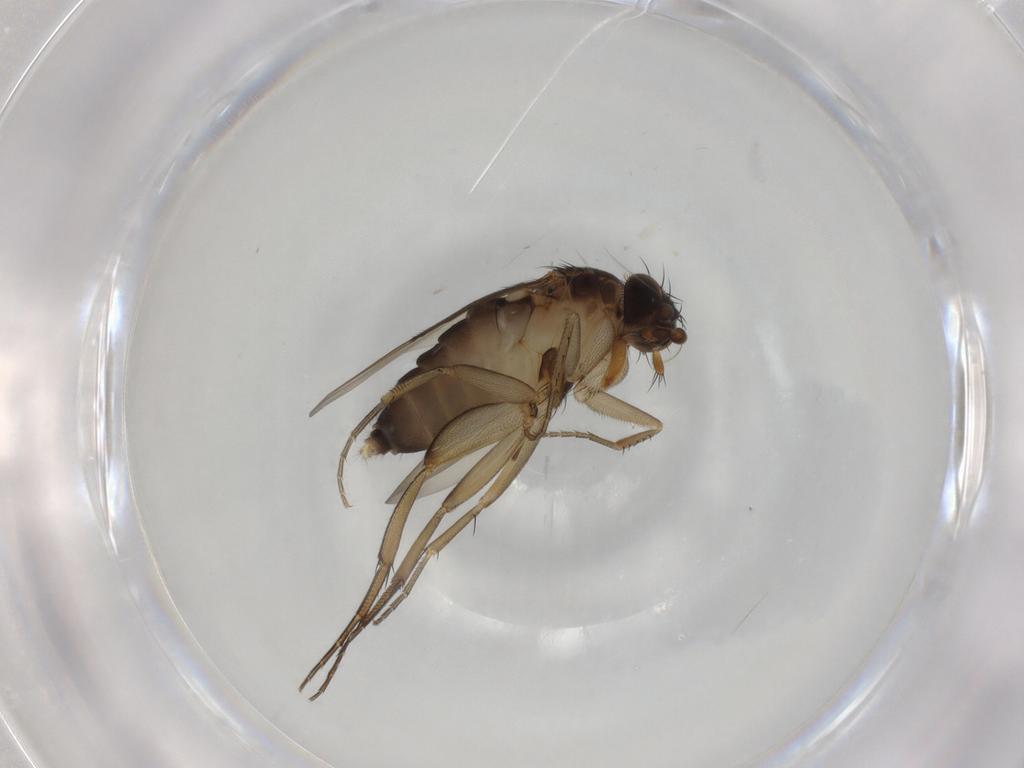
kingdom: Animalia
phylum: Arthropoda
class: Insecta
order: Diptera
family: Phoridae
